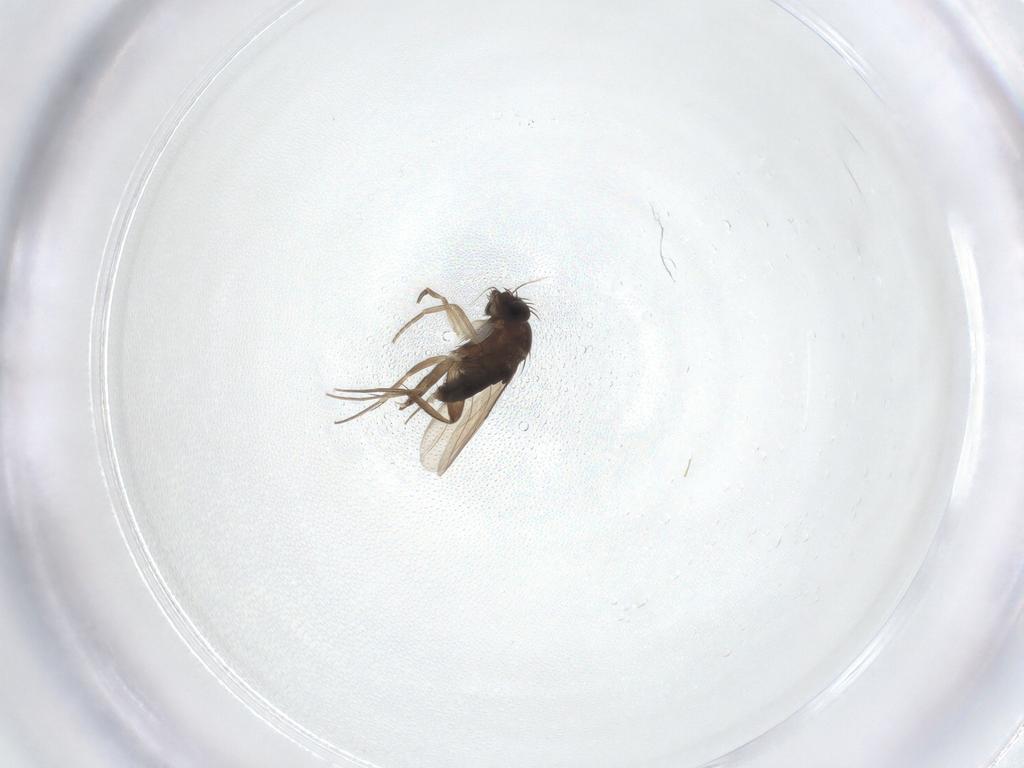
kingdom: Animalia
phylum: Arthropoda
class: Insecta
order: Diptera
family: Phoridae
